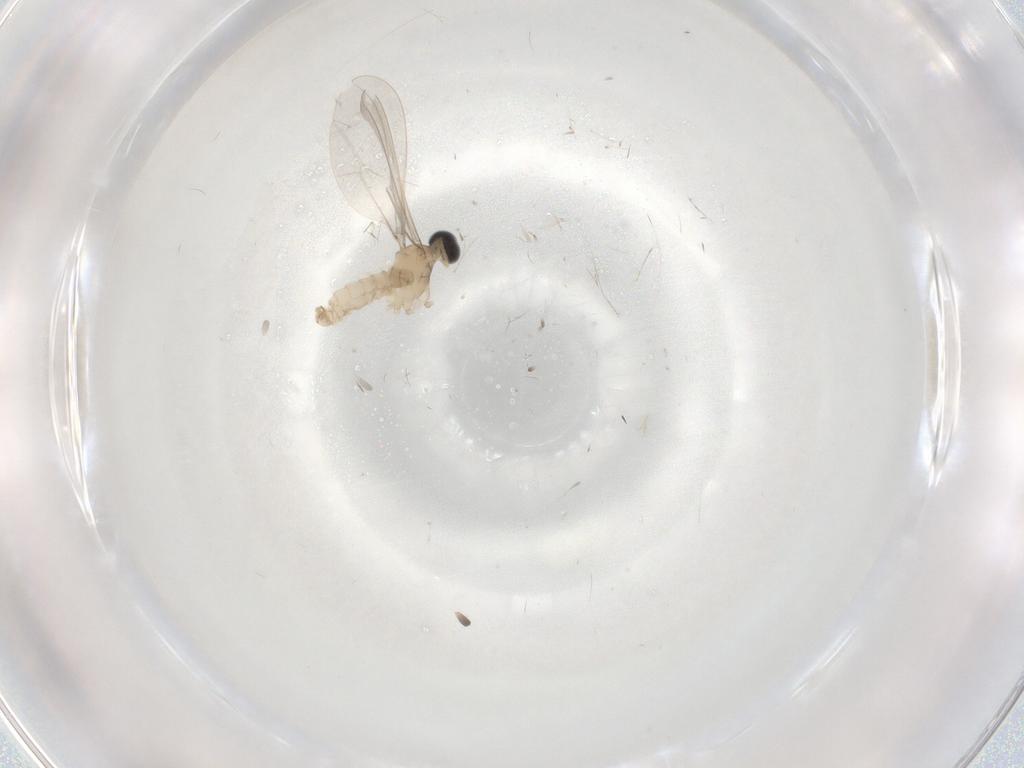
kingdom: Animalia
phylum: Arthropoda
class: Insecta
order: Diptera
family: Cecidomyiidae
